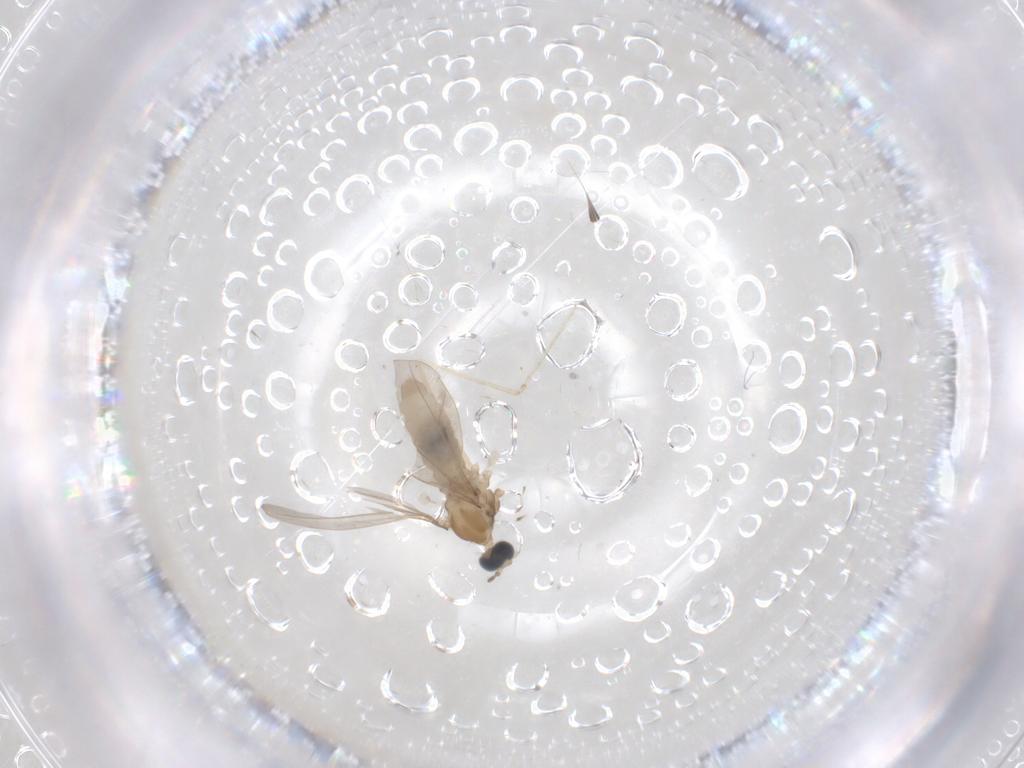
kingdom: Animalia
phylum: Arthropoda
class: Insecta
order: Diptera
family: Cecidomyiidae
